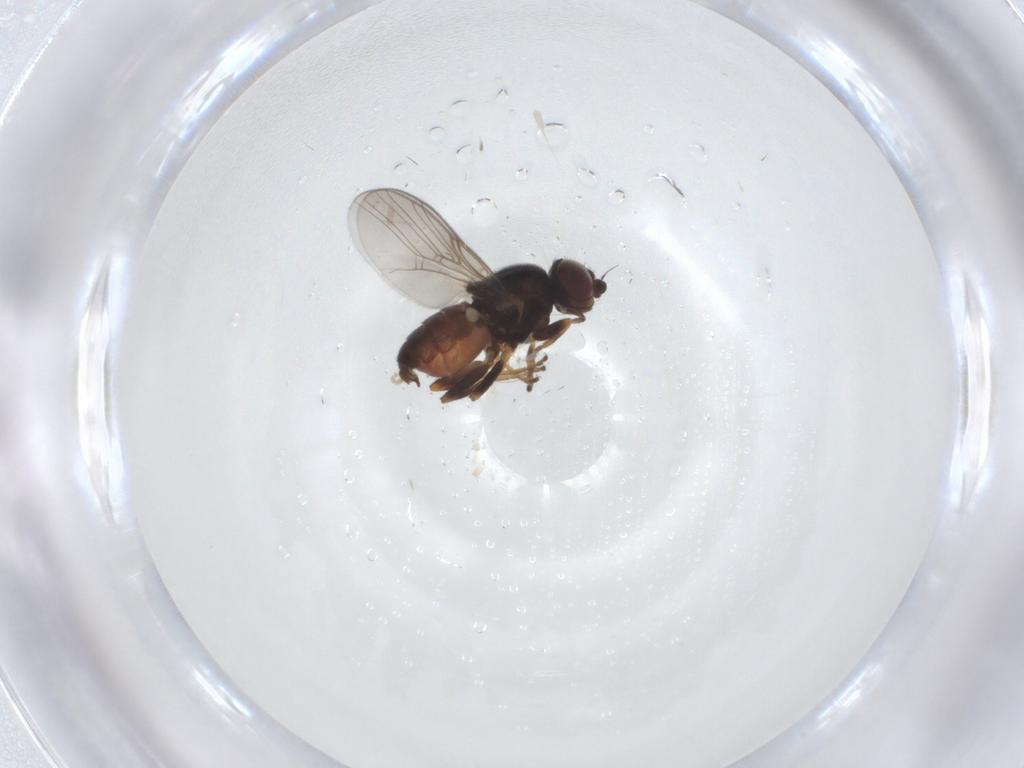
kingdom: Animalia
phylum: Arthropoda
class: Insecta
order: Diptera
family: Chloropidae
